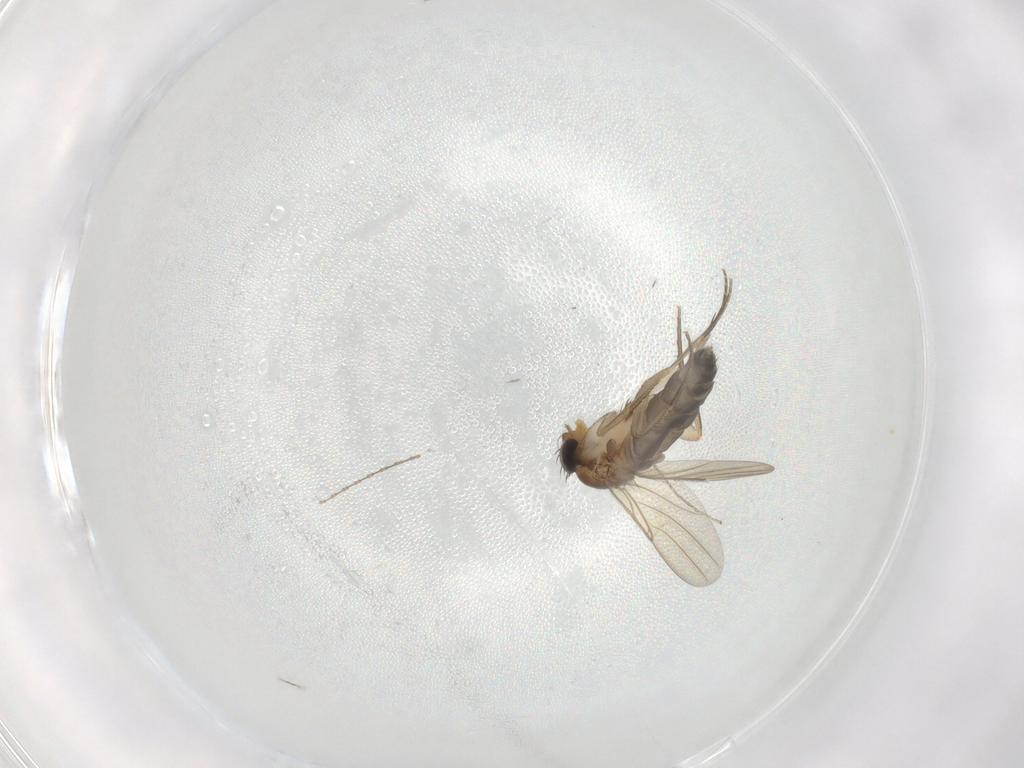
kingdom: Animalia
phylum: Arthropoda
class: Insecta
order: Diptera
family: Phoridae
